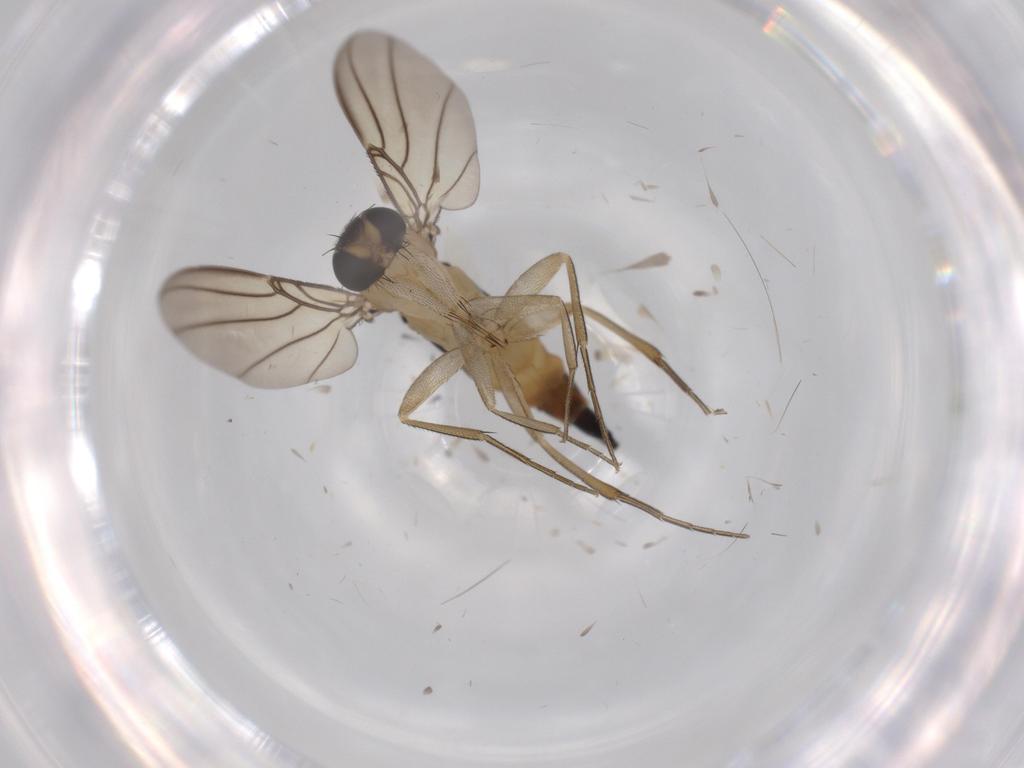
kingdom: Animalia
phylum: Arthropoda
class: Insecta
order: Diptera
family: Phoridae
